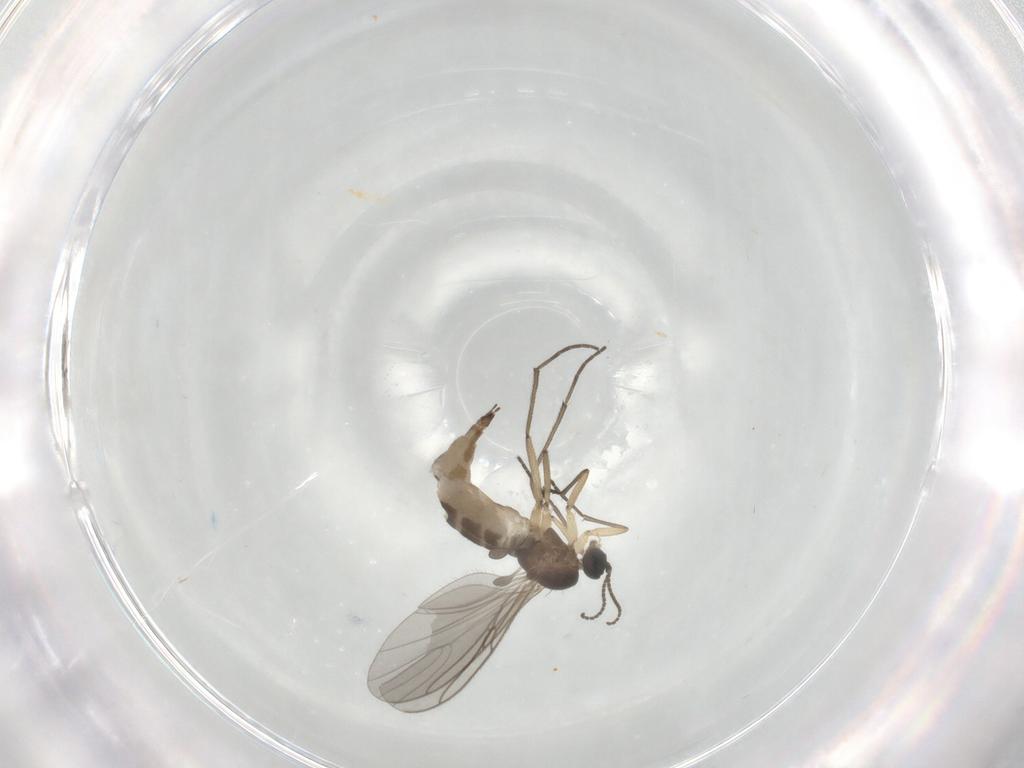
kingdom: Animalia
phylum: Arthropoda
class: Insecta
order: Diptera
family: Sciaridae
